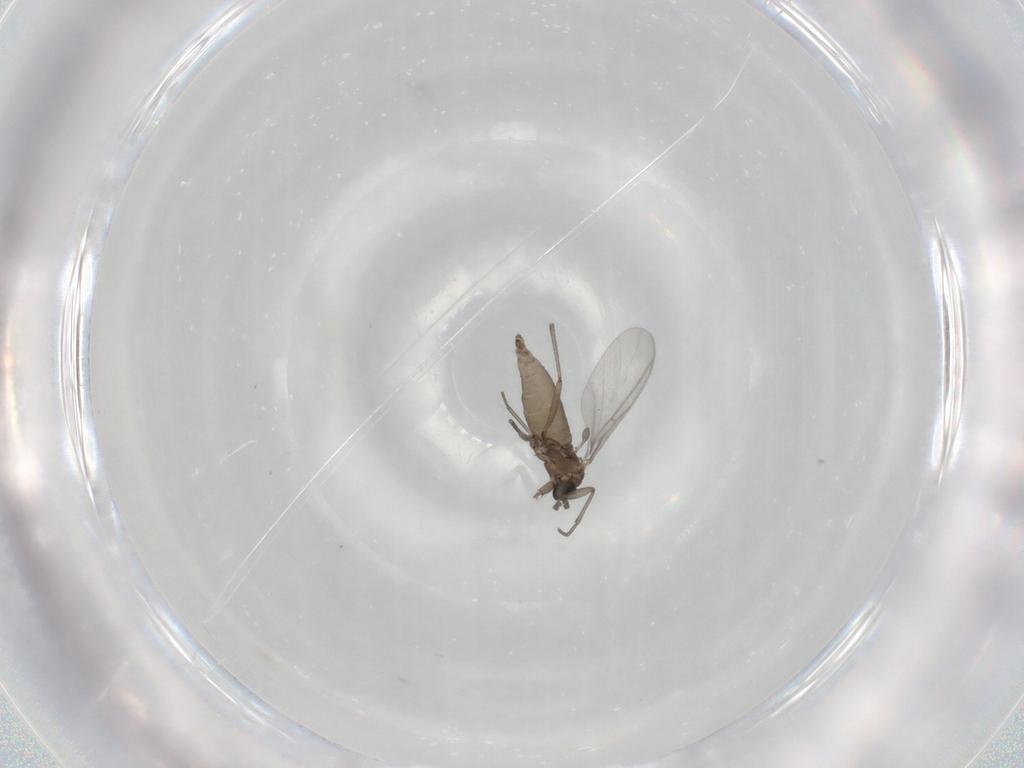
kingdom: Animalia
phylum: Arthropoda
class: Insecta
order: Diptera
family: Sciaridae
